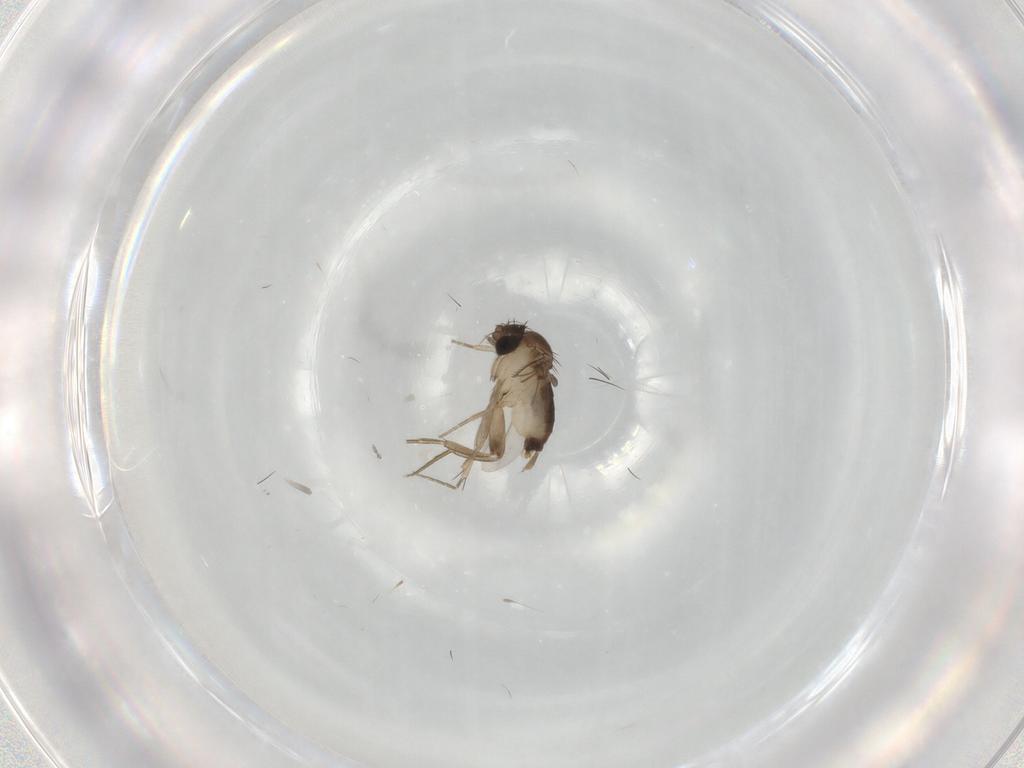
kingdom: Animalia
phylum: Arthropoda
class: Insecta
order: Diptera
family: Phoridae
